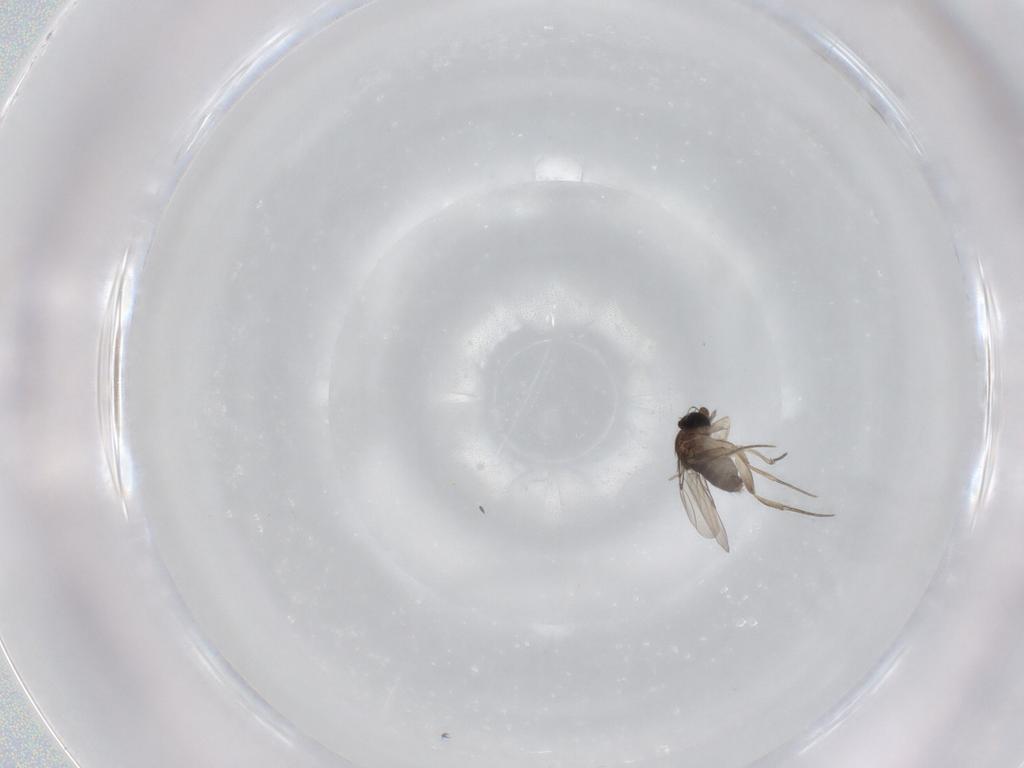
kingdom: Animalia
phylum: Arthropoda
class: Insecta
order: Diptera
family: Phoridae
